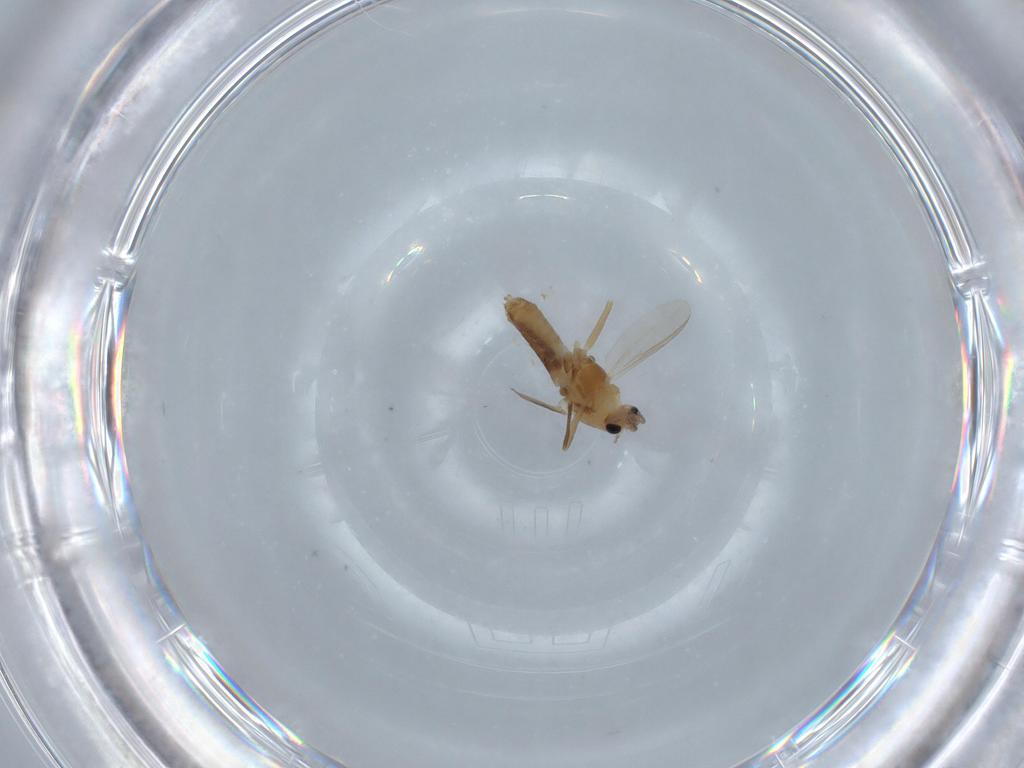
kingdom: Animalia
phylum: Arthropoda
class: Insecta
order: Diptera
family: Chironomidae
